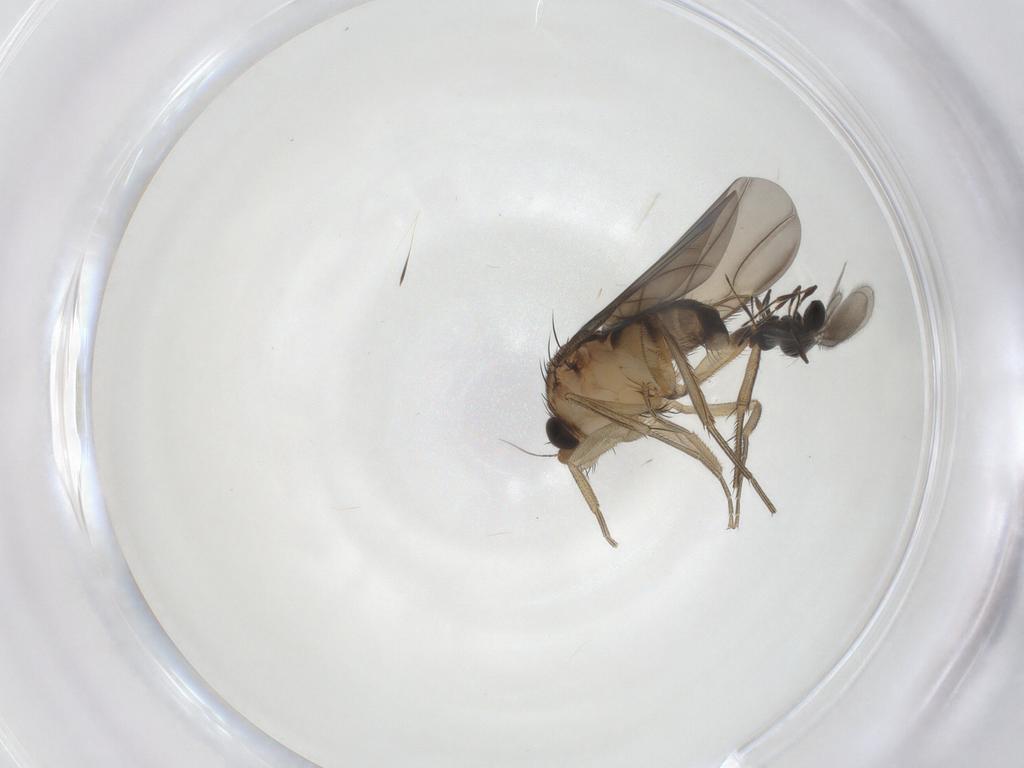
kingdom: Animalia
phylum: Arthropoda
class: Insecta
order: Diptera
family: Phoridae
